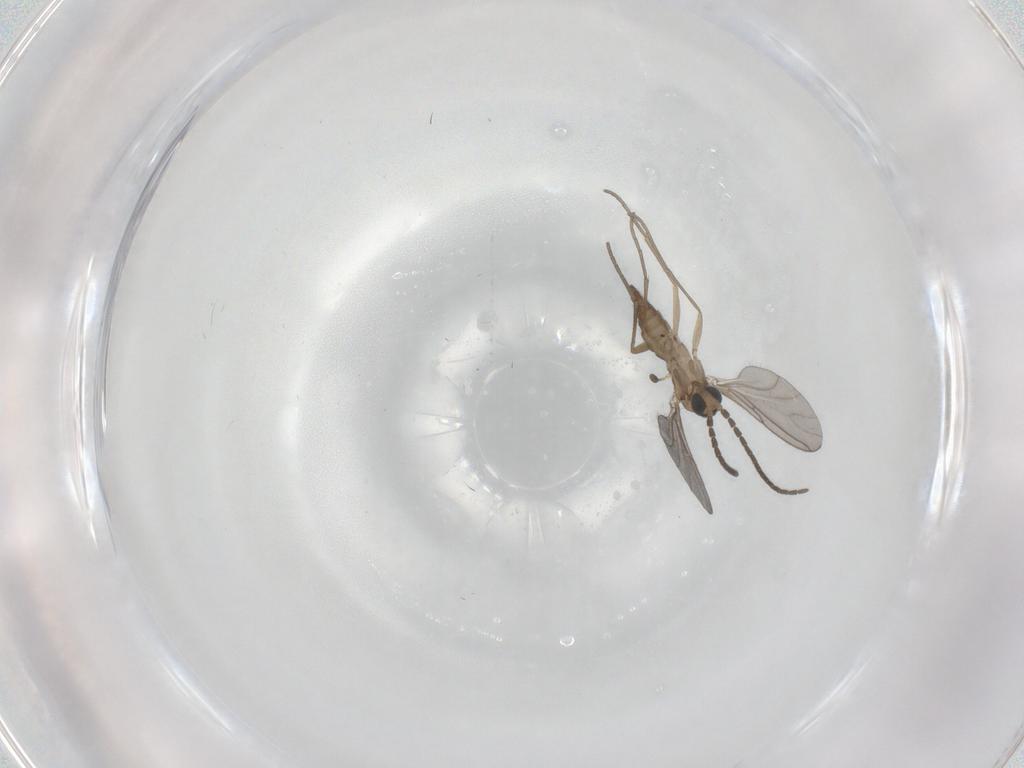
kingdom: Animalia
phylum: Arthropoda
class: Insecta
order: Diptera
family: Sciaridae
